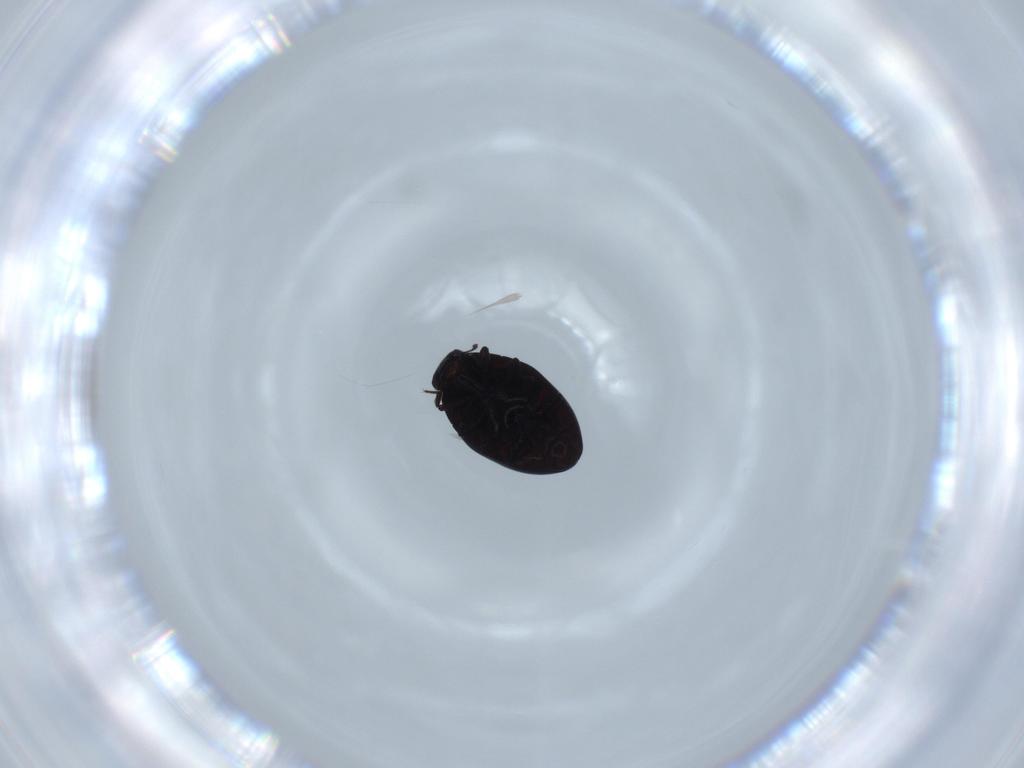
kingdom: Animalia
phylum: Arthropoda
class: Insecta
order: Coleoptera
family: Limnichidae
